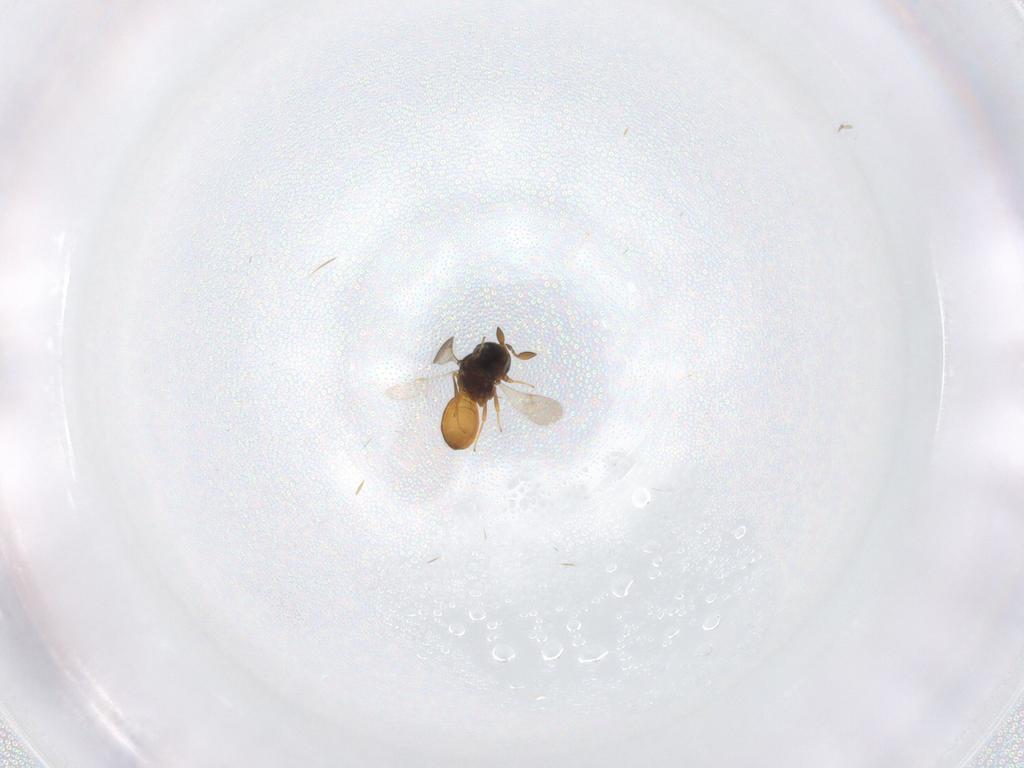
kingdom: Animalia
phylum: Arthropoda
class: Insecta
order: Hymenoptera
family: Scelionidae
